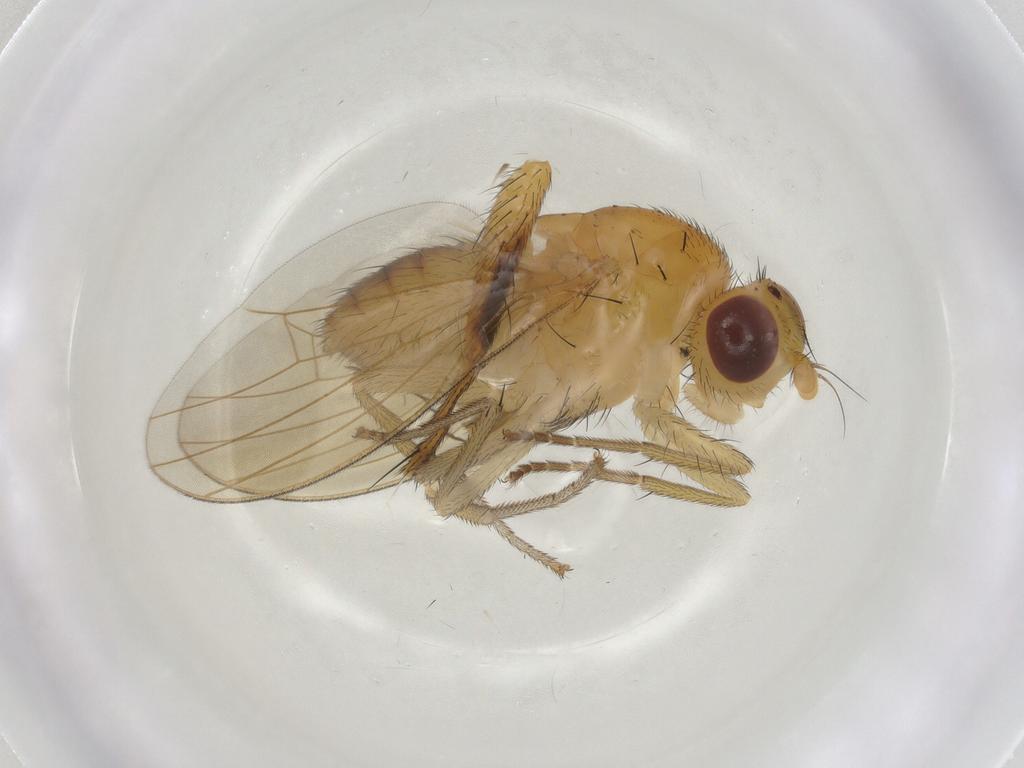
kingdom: Animalia
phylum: Arthropoda
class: Insecta
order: Diptera
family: Muscidae
